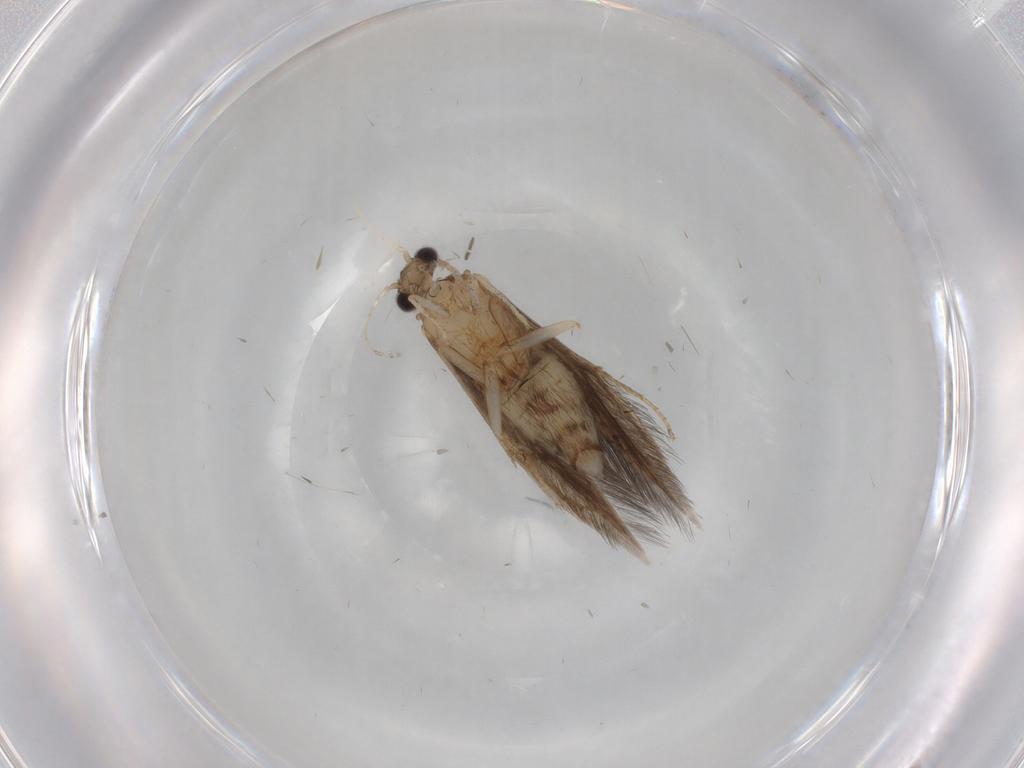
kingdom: Animalia
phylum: Arthropoda
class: Insecta
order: Trichoptera
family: Hydroptilidae
